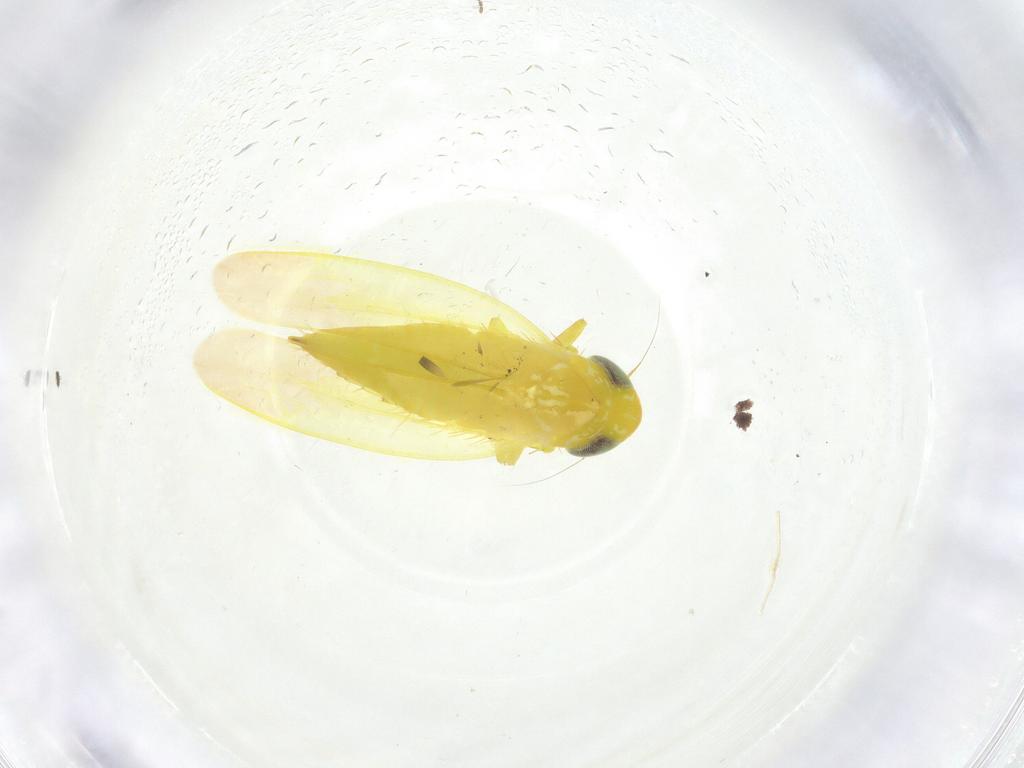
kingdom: Animalia
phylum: Arthropoda
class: Insecta
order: Hemiptera
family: Cicadellidae
